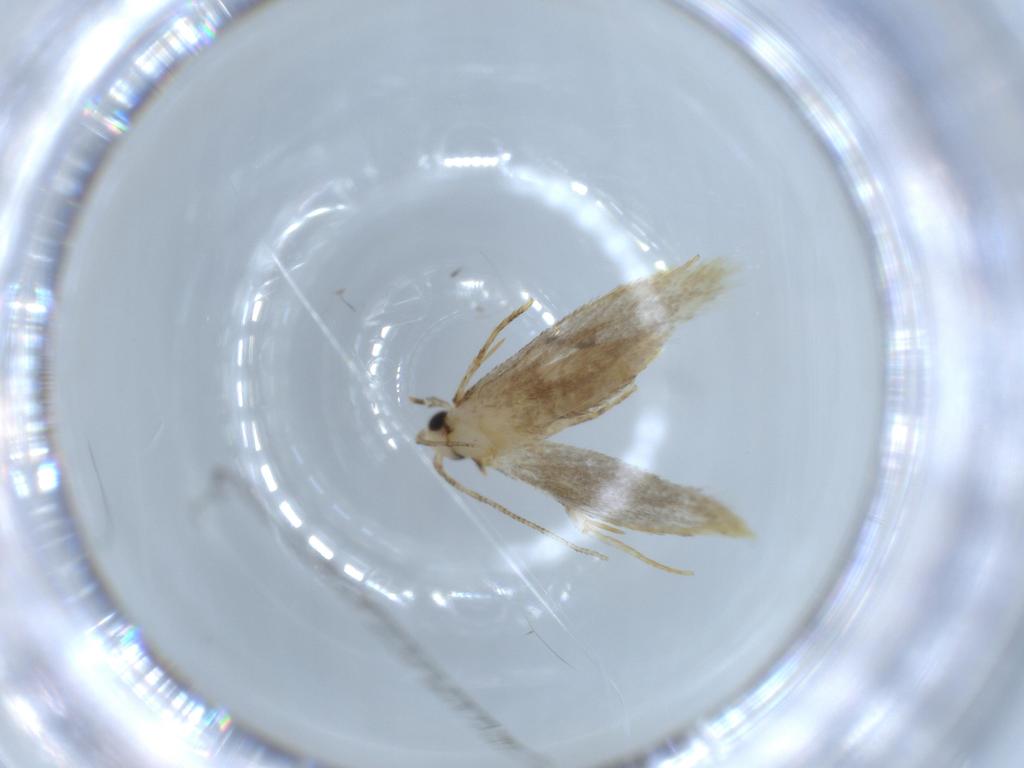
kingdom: Animalia
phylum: Arthropoda
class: Insecta
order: Lepidoptera
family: Tineidae
